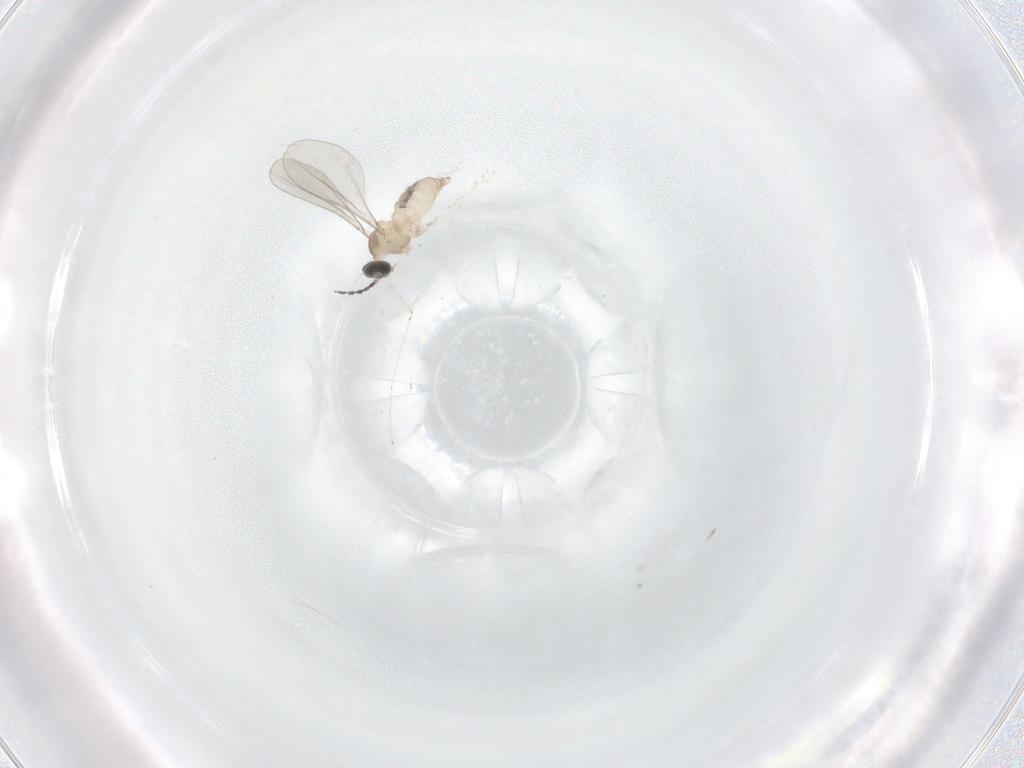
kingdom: Animalia
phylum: Arthropoda
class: Insecta
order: Diptera
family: Cecidomyiidae
